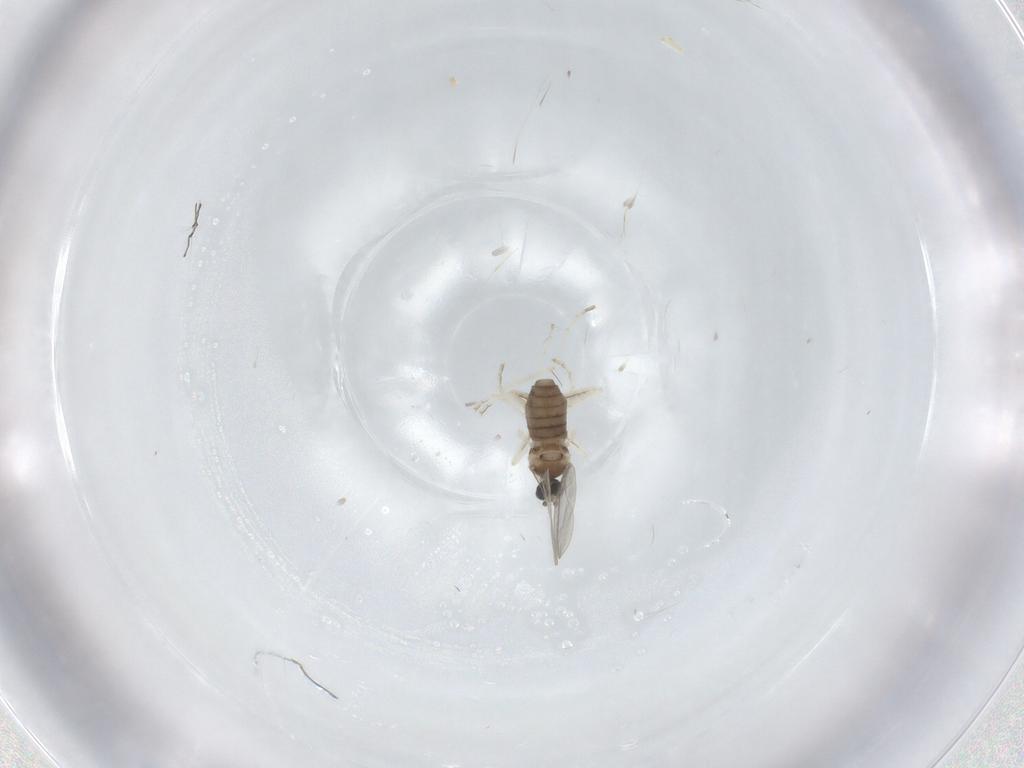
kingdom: Animalia
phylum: Arthropoda
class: Insecta
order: Diptera
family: Cecidomyiidae
